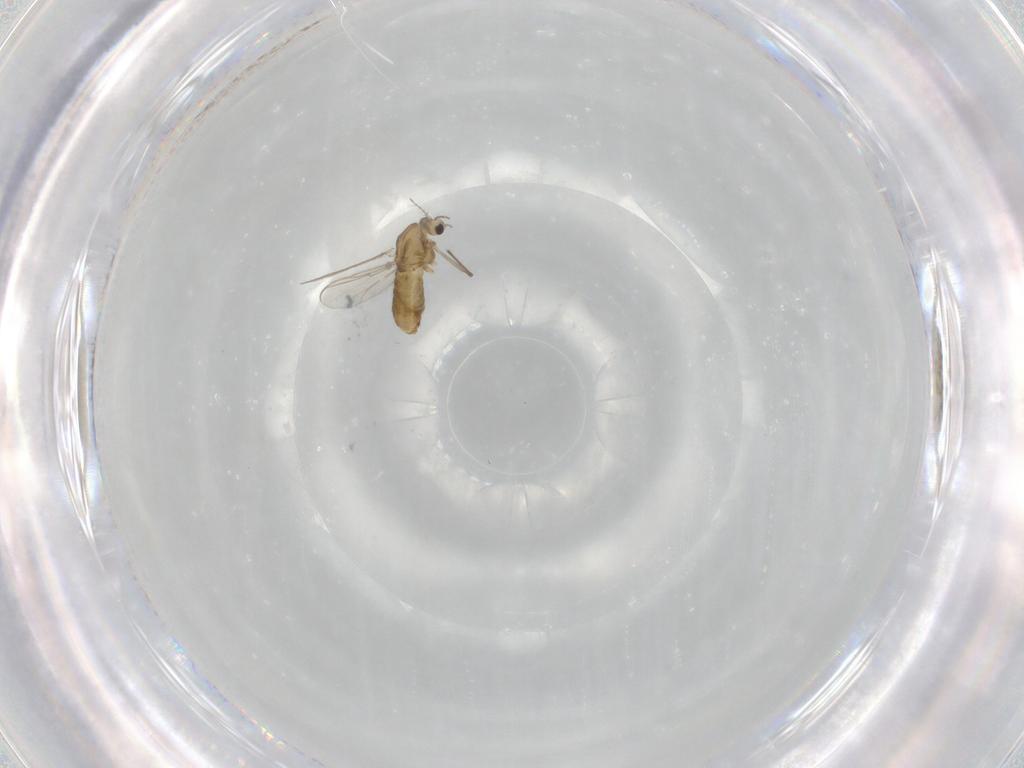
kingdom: Animalia
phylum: Arthropoda
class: Insecta
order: Diptera
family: Chironomidae
